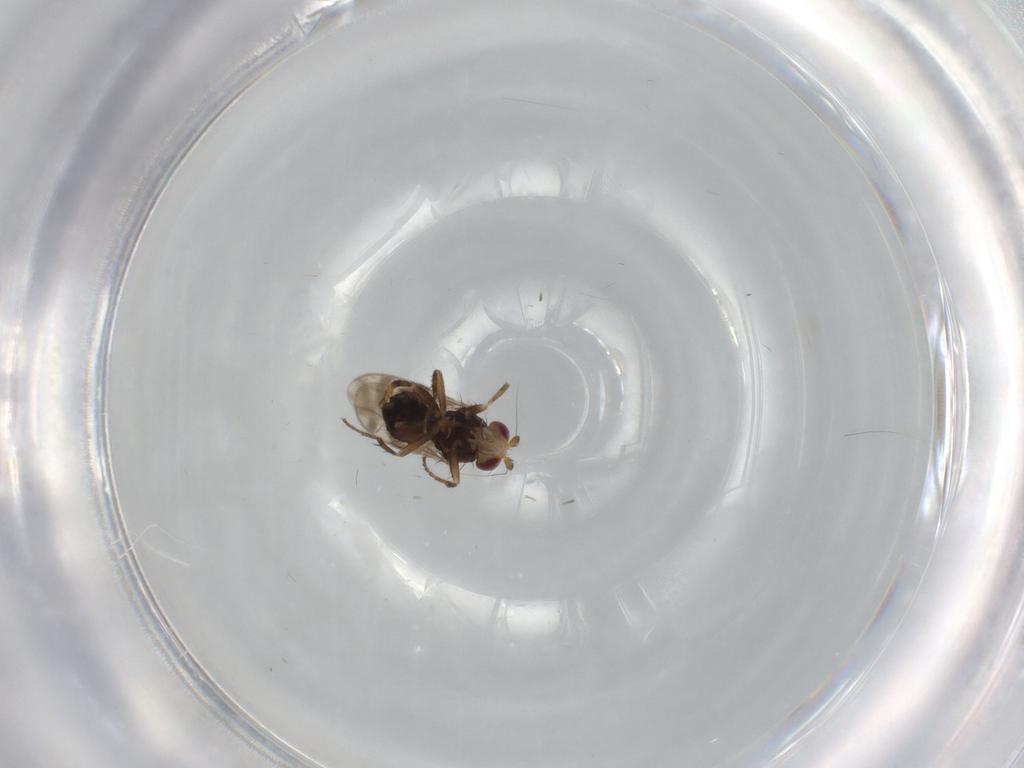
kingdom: Animalia
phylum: Arthropoda
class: Insecta
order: Diptera
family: Sphaeroceridae
